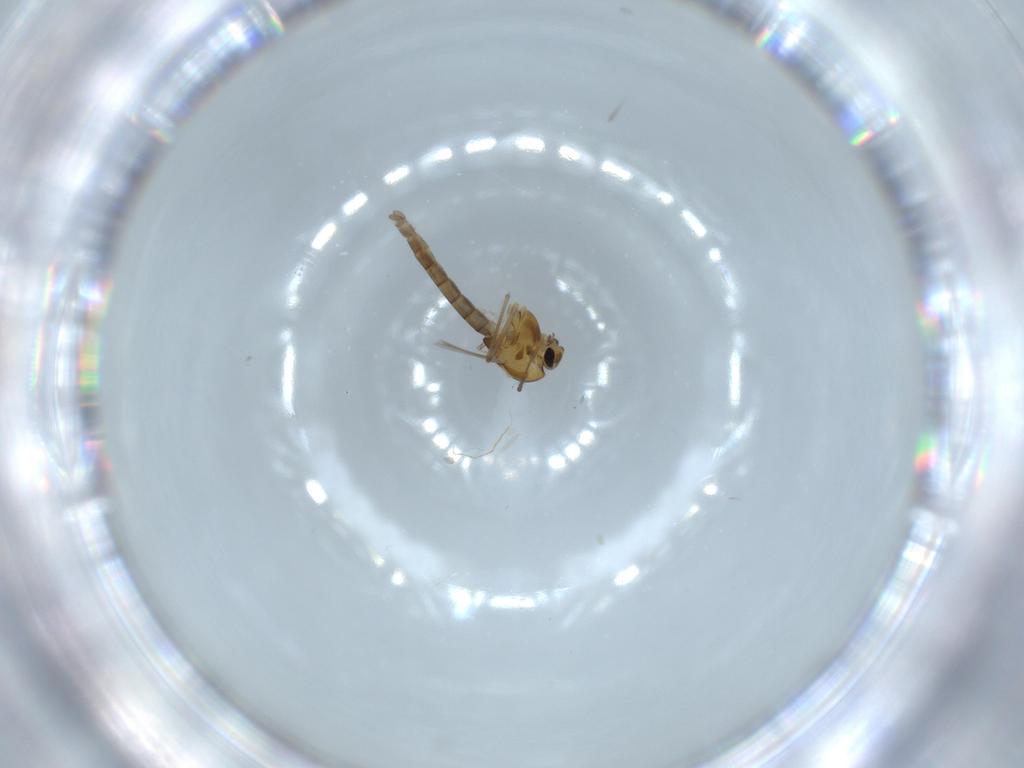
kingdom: Animalia
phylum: Arthropoda
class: Insecta
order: Diptera
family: Chironomidae
